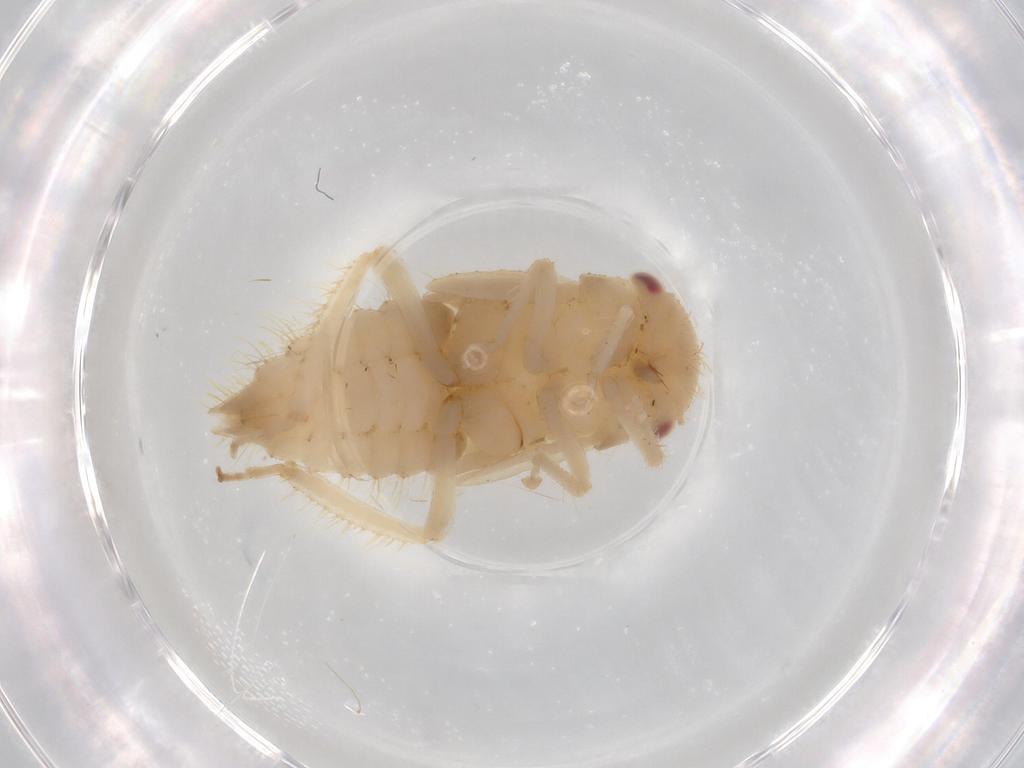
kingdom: Animalia
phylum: Arthropoda
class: Insecta
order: Hemiptera
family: Cicadellidae
